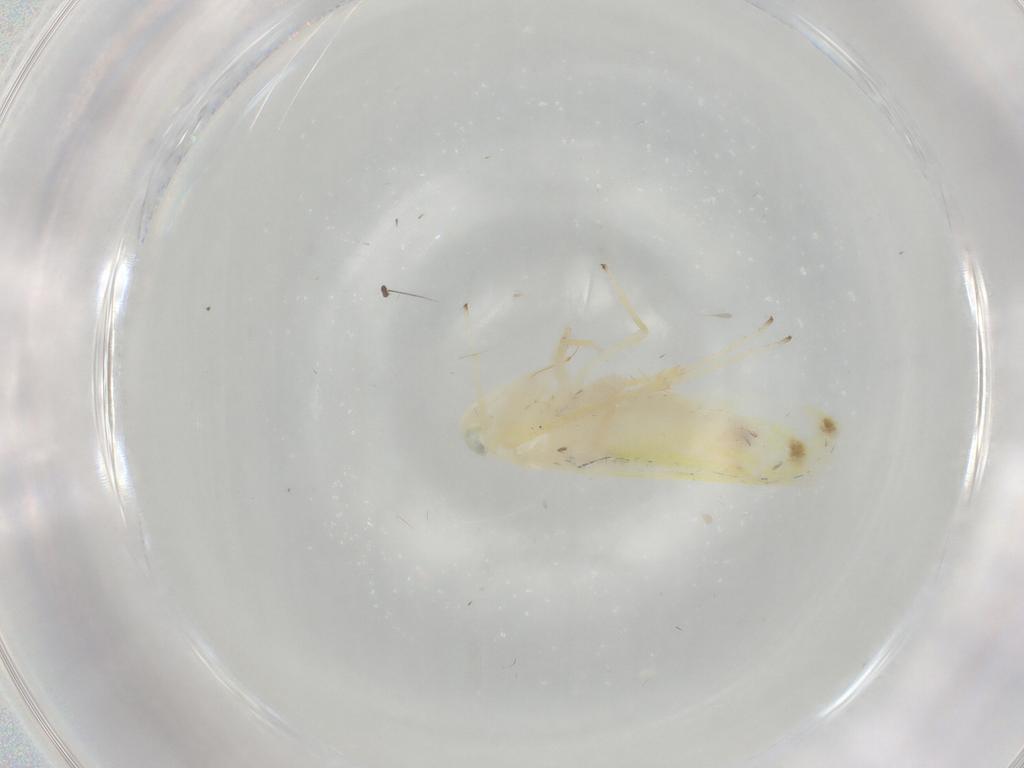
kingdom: Animalia
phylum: Arthropoda
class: Insecta
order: Hemiptera
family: Cicadellidae
